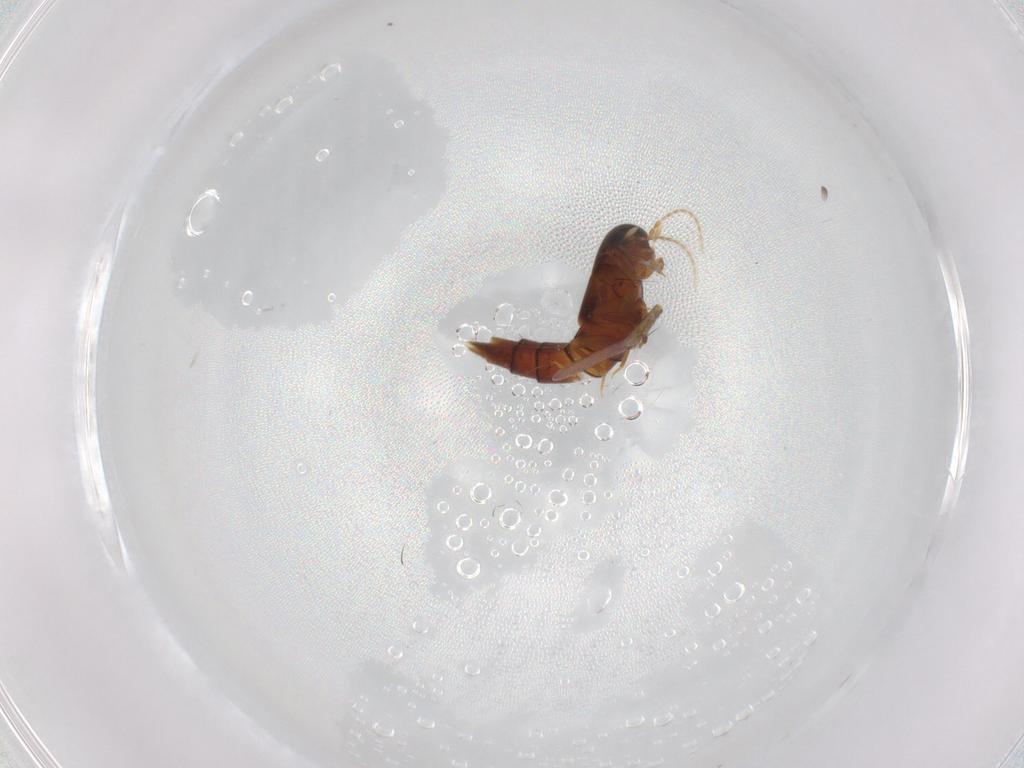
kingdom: Animalia
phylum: Arthropoda
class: Insecta
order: Coleoptera
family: Staphylinidae
